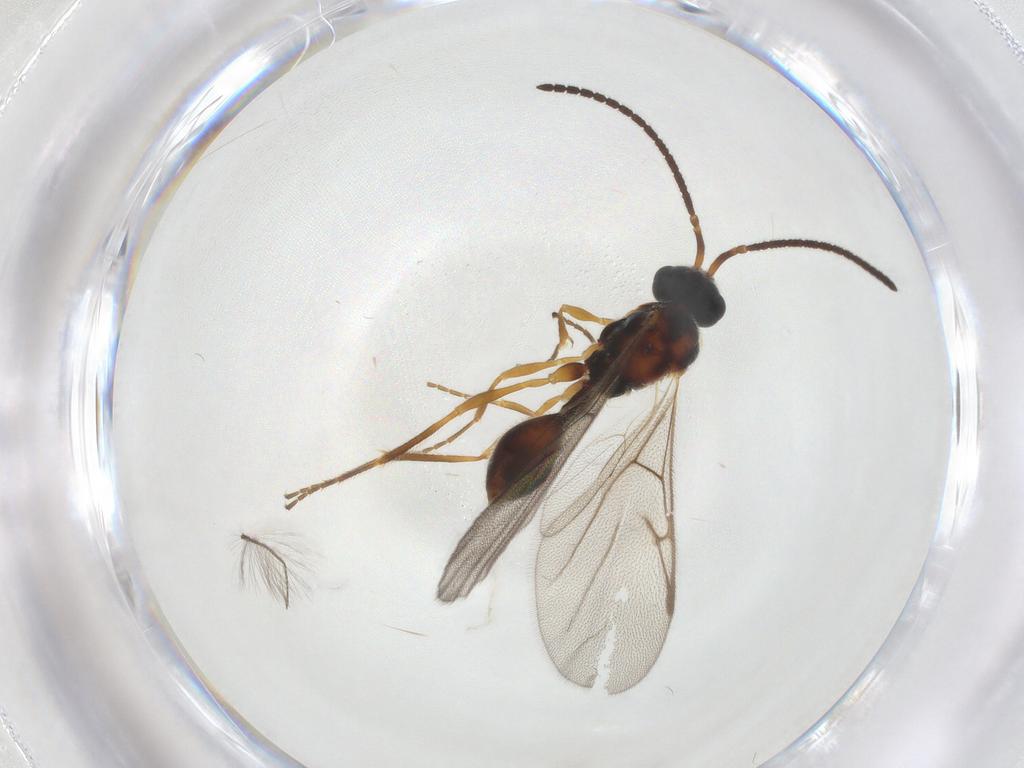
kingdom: Animalia
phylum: Arthropoda
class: Insecta
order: Hymenoptera
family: Diapriidae
